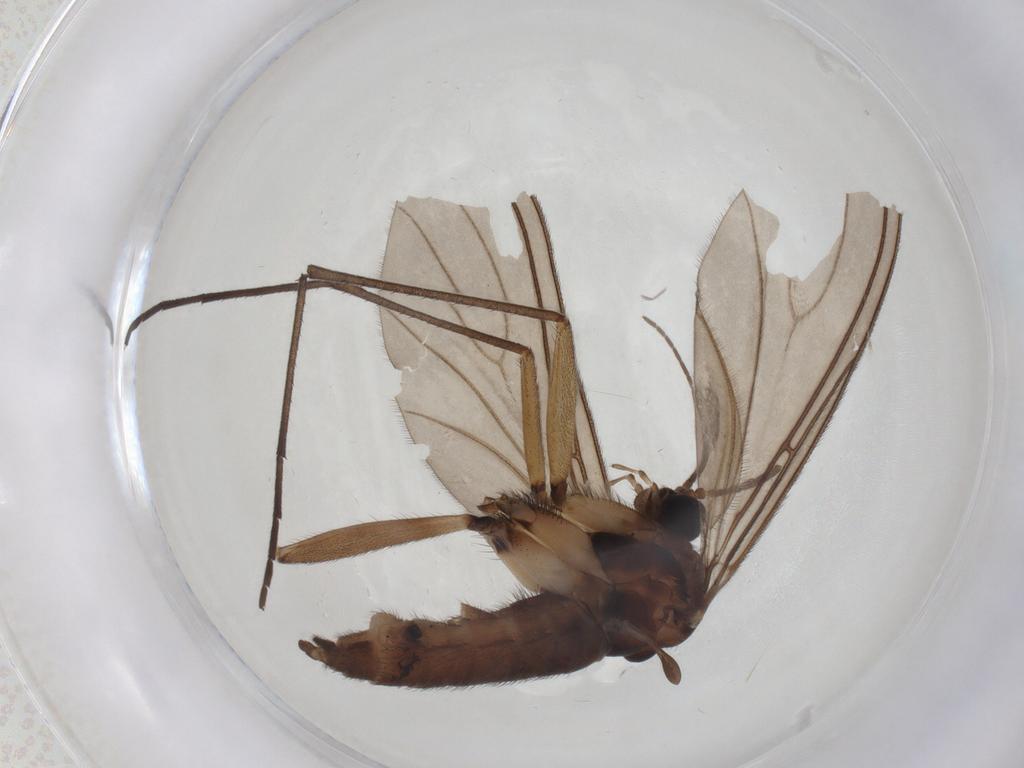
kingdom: Animalia
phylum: Arthropoda
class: Insecta
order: Diptera
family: Sciaridae
